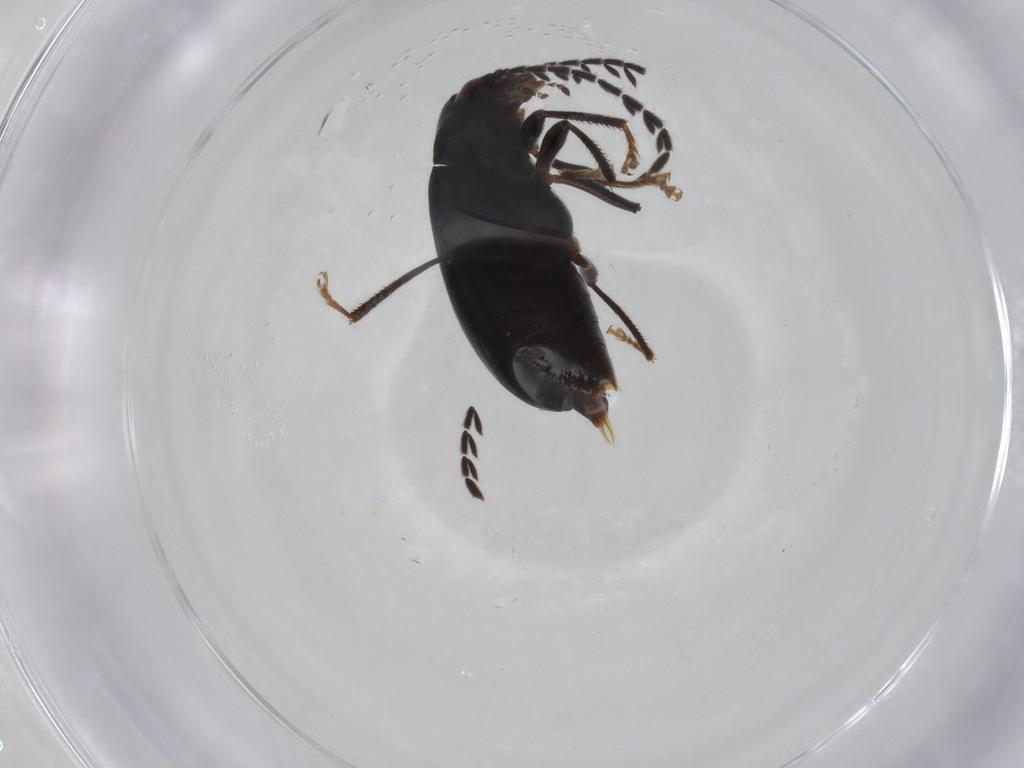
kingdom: Animalia
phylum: Arthropoda
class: Insecta
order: Coleoptera
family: Ptilodactylidae
